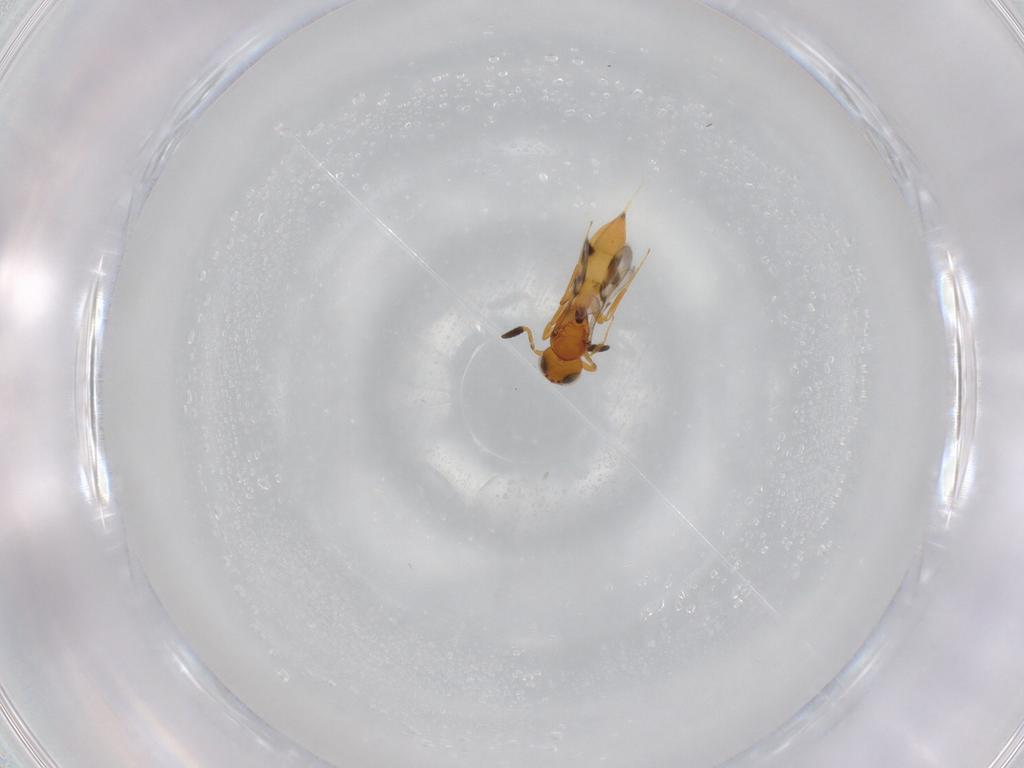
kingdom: Animalia
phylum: Arthropoda
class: Insecta
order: Hymenoptera
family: Scelionidae
